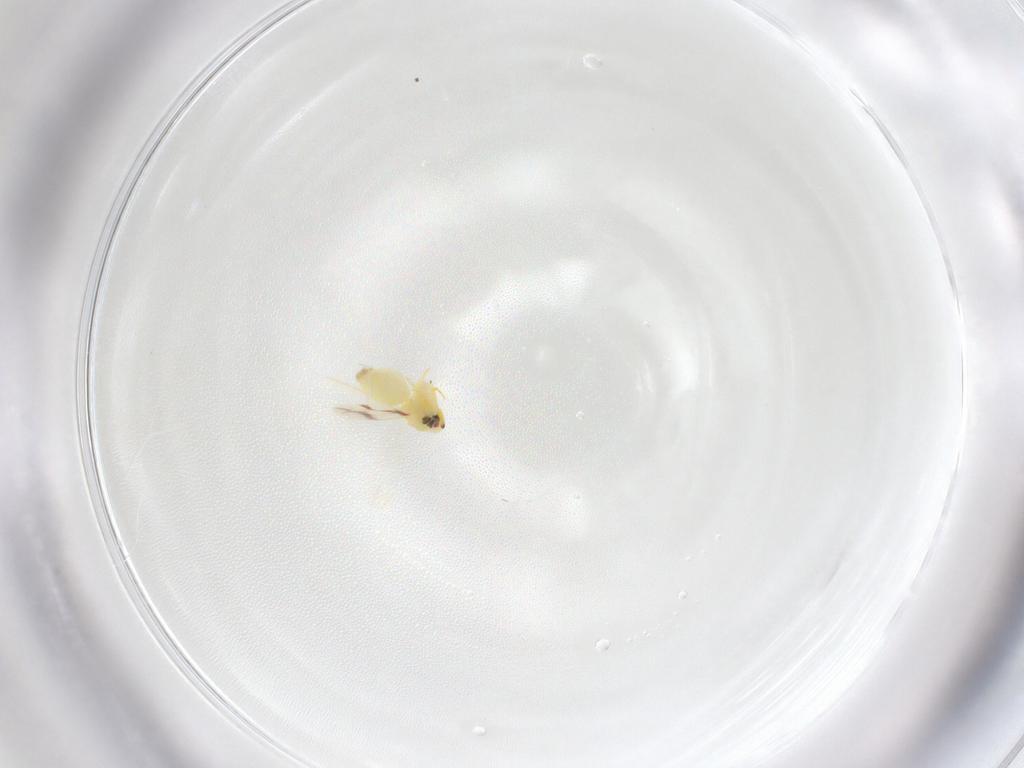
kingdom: Animalia
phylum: Arthropoda
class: Insecta
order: Hemiptera
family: Aleyrodidae
